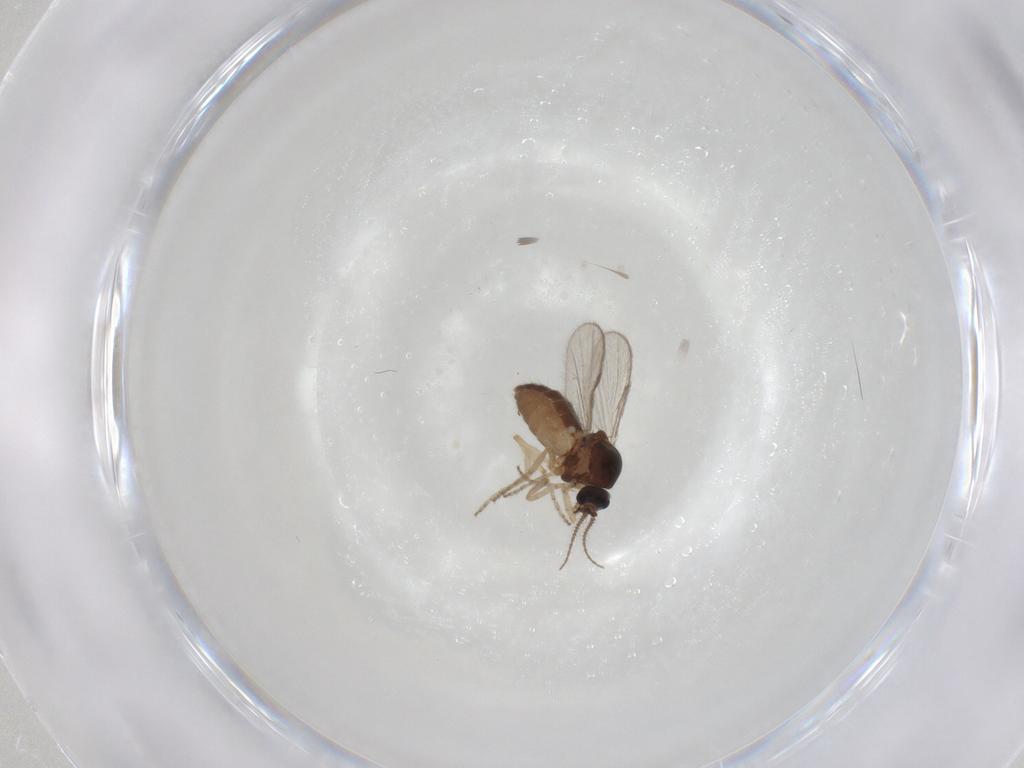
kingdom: Animalia
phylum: Arthropoda
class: Insecta
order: Diptera
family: Ceratopogonidae
